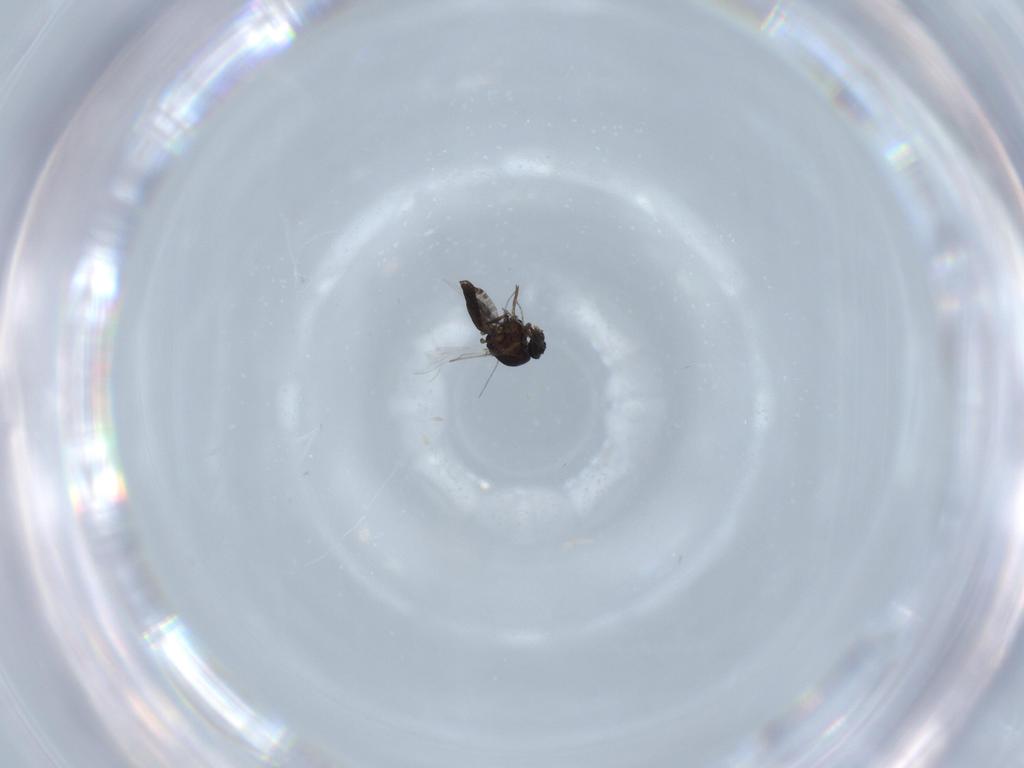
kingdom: Animalia
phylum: Arthropoda
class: Insecta
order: Diptera
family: Ceratopogonidae
